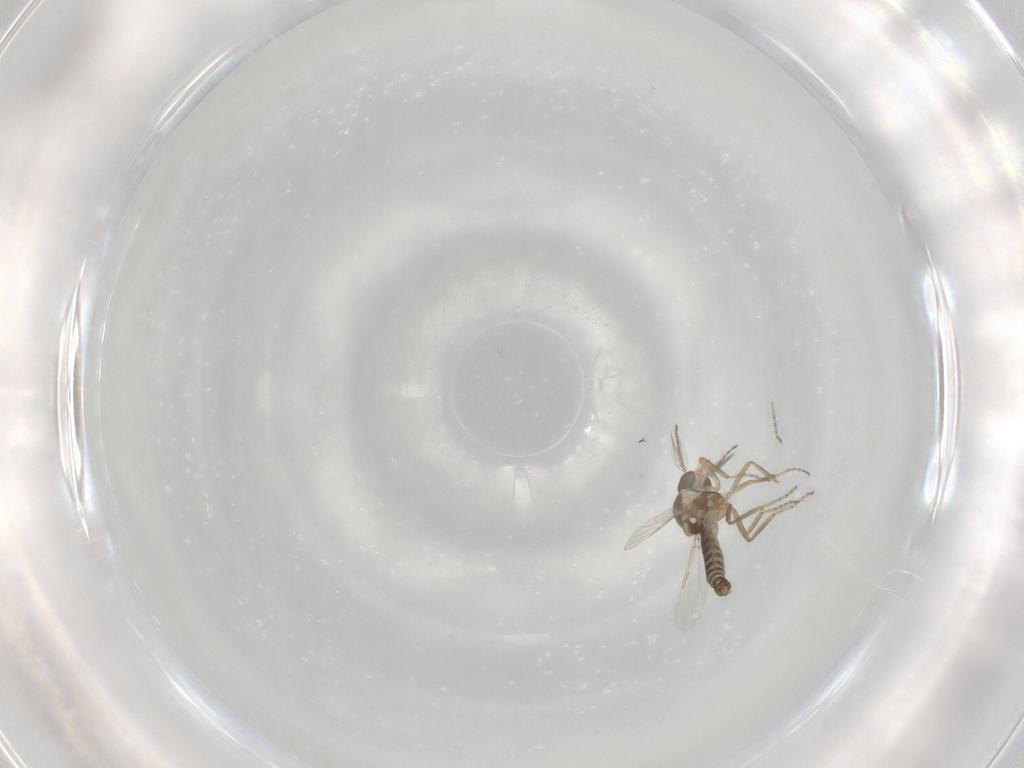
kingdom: Animalia
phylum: Arthropoda
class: Insecta
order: Diptera
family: Ceratopogonidae
